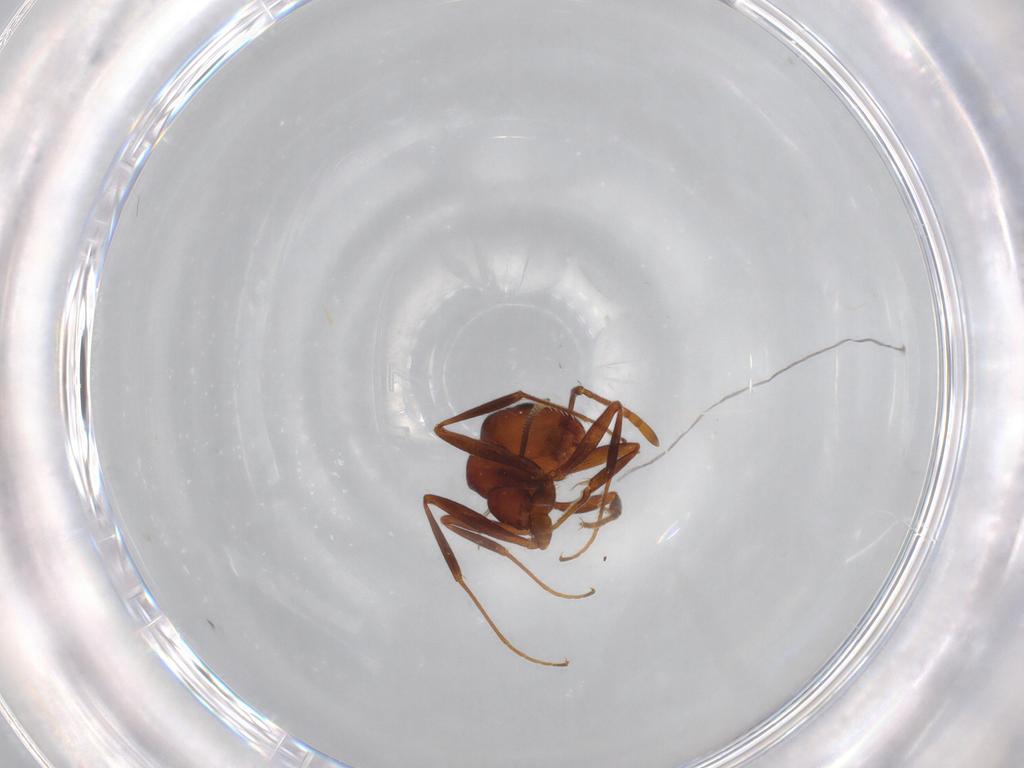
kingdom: Animalia
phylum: Arthropoda
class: Insecta
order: Hymenoptera
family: Formicidae
